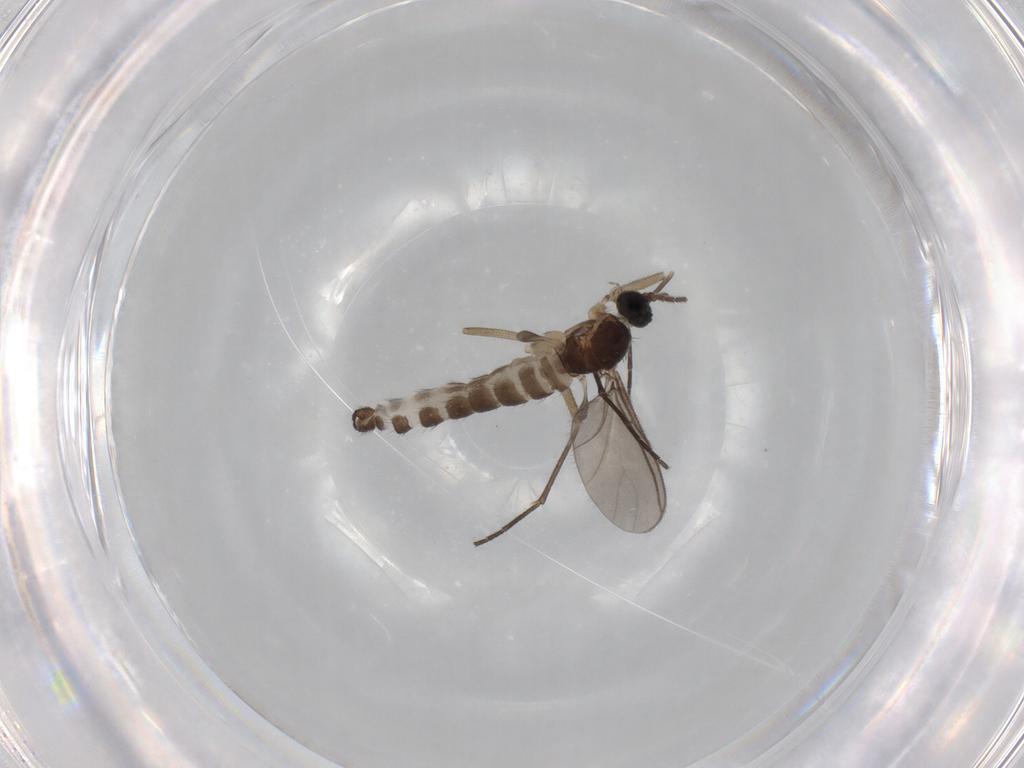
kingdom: Animalia
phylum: Arthropoda
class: Insecta
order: Diptera
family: Sciaridae
